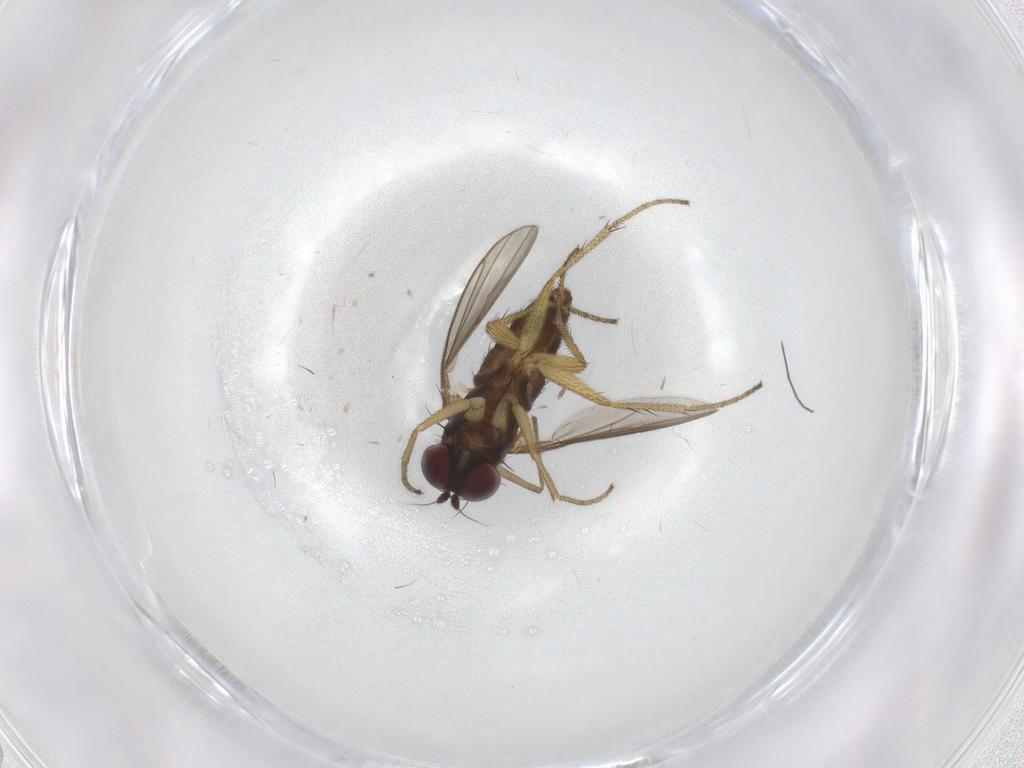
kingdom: Animalia
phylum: Arthropoda
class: Insecta
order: Diptera
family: Chironomidae
